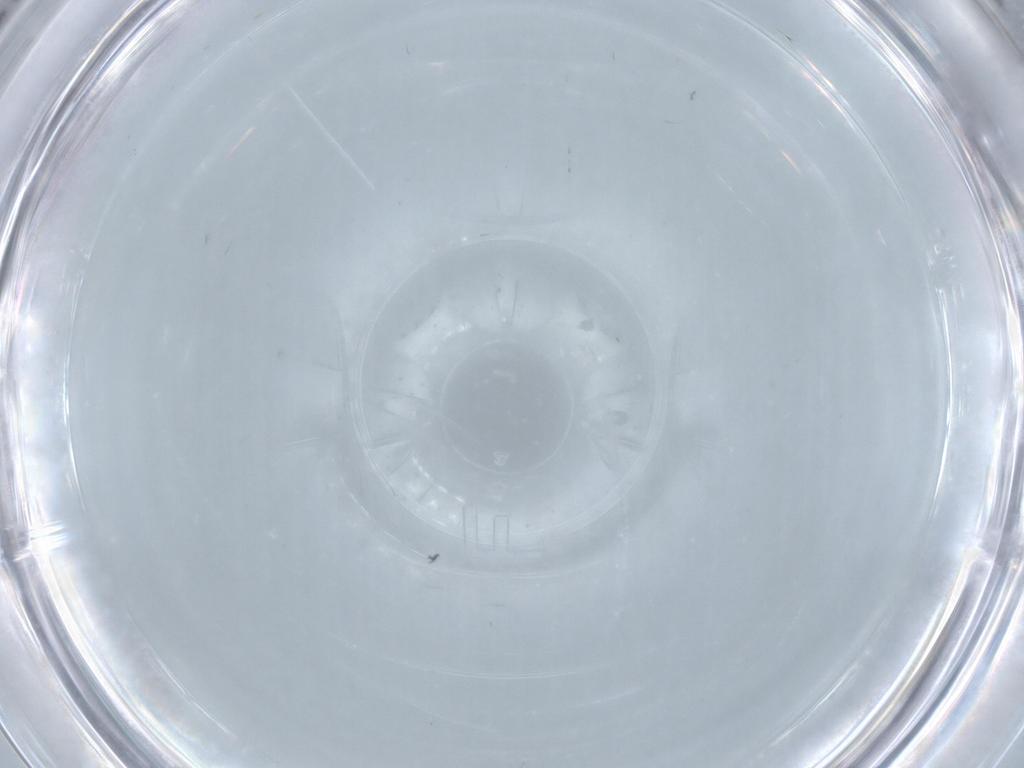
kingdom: Animalia
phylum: Arthropoda
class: Insecta
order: Diptera
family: Cecidomyiidae
